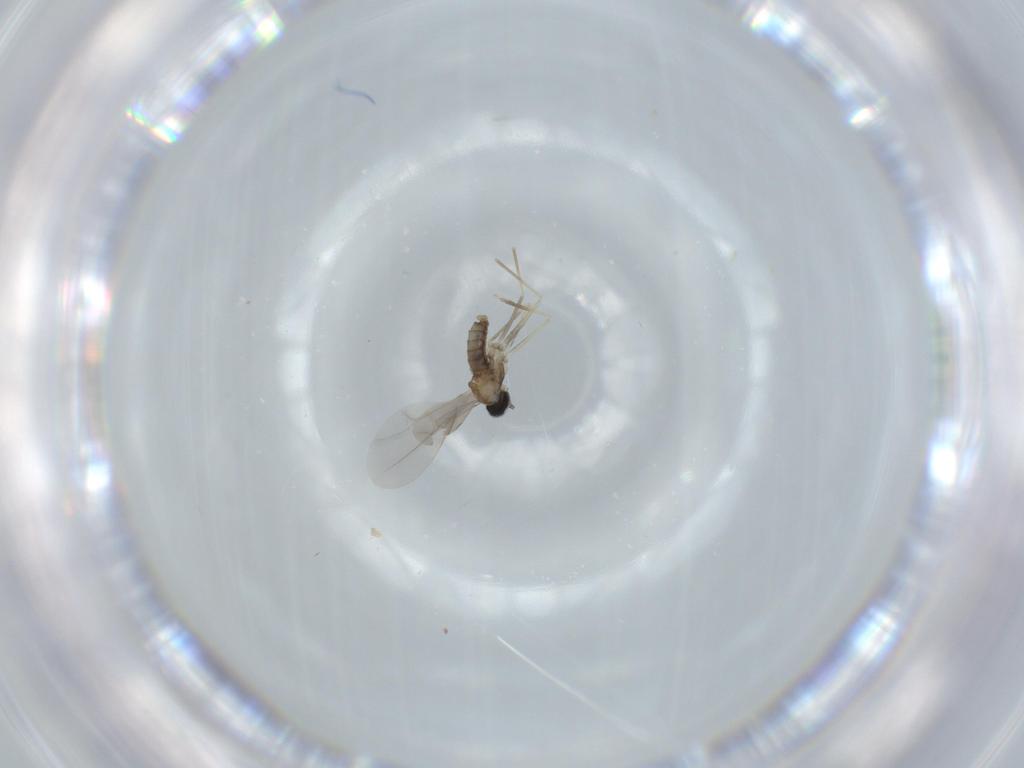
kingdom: Animalia
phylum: Arthropoda
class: Insecta
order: Diptera
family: Cecidomyiidae
